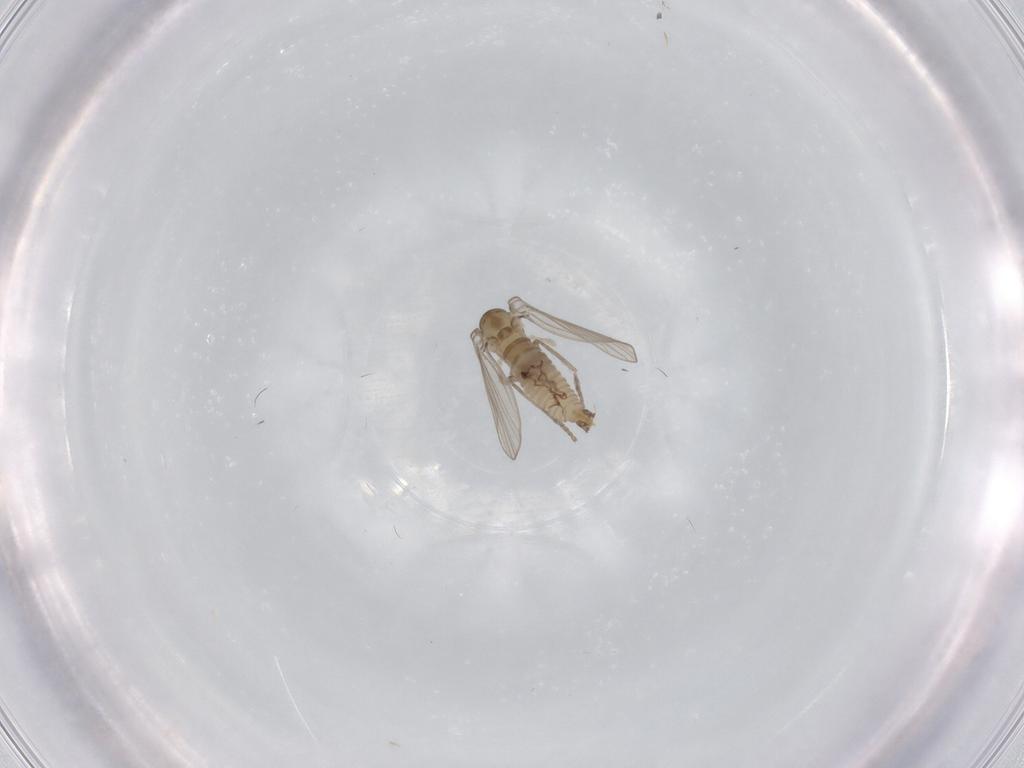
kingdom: Animalia
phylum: Arthropoda
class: Insecta
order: Diptera
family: Psychodidae
